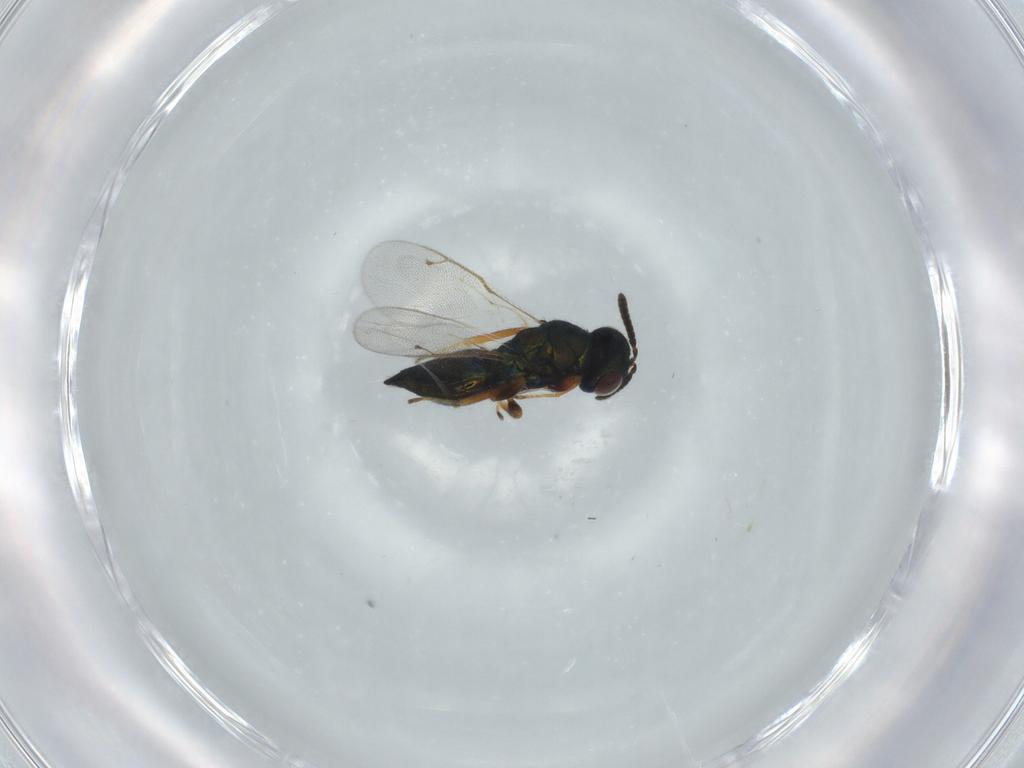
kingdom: Animalia
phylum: Arthropoda
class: Insecta
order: Hymenoptera
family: Pteromalidae
